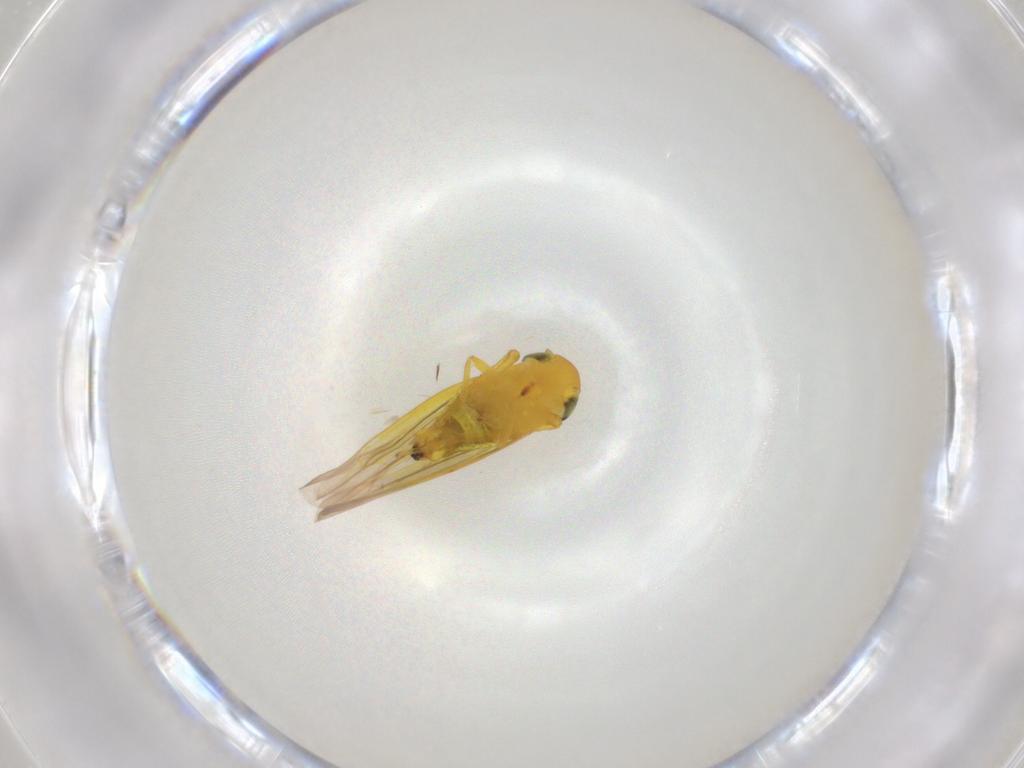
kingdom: Animalia
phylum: Arthropoda
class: Insecta
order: Hemiptera
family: Cicadellidae
